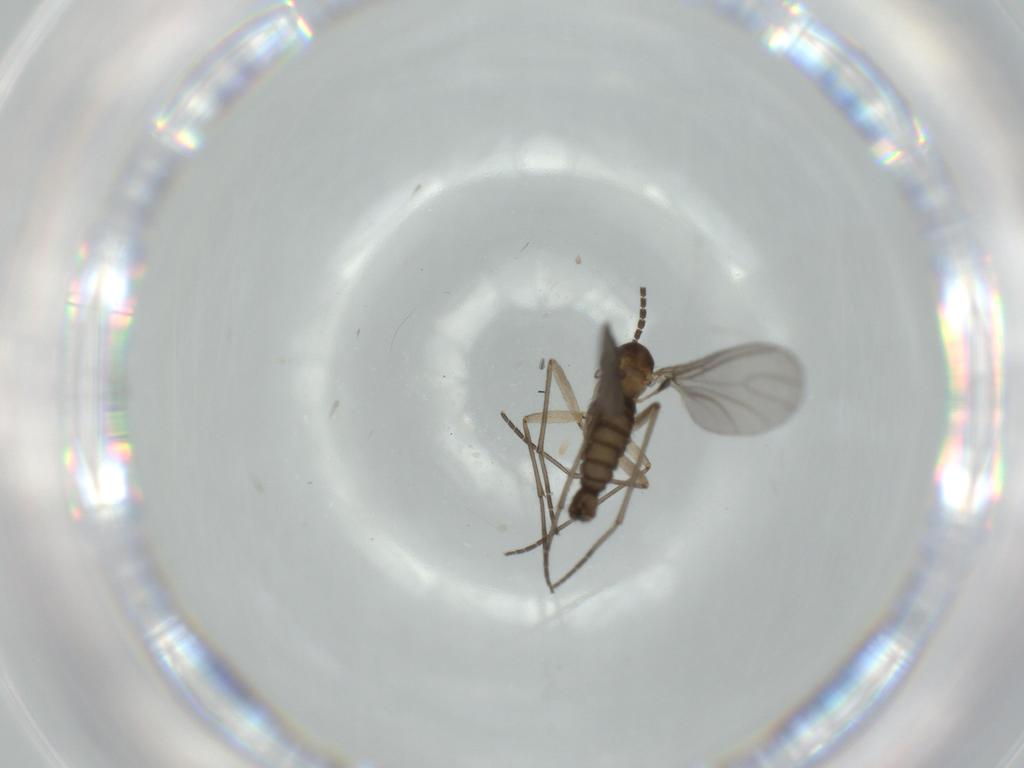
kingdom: Animalia
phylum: Arthropoda
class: Insecta
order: Diptera
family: Sciaridae
